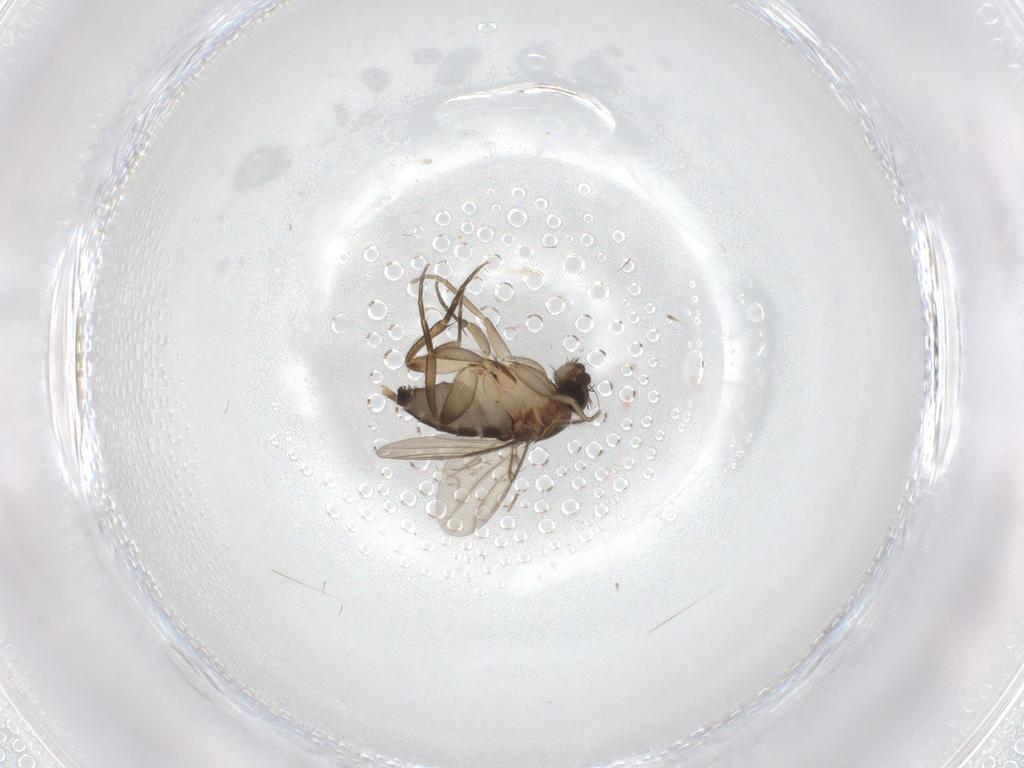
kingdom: Animalia
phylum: Arthropoda
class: Insecta
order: Diptera
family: Phoridae
